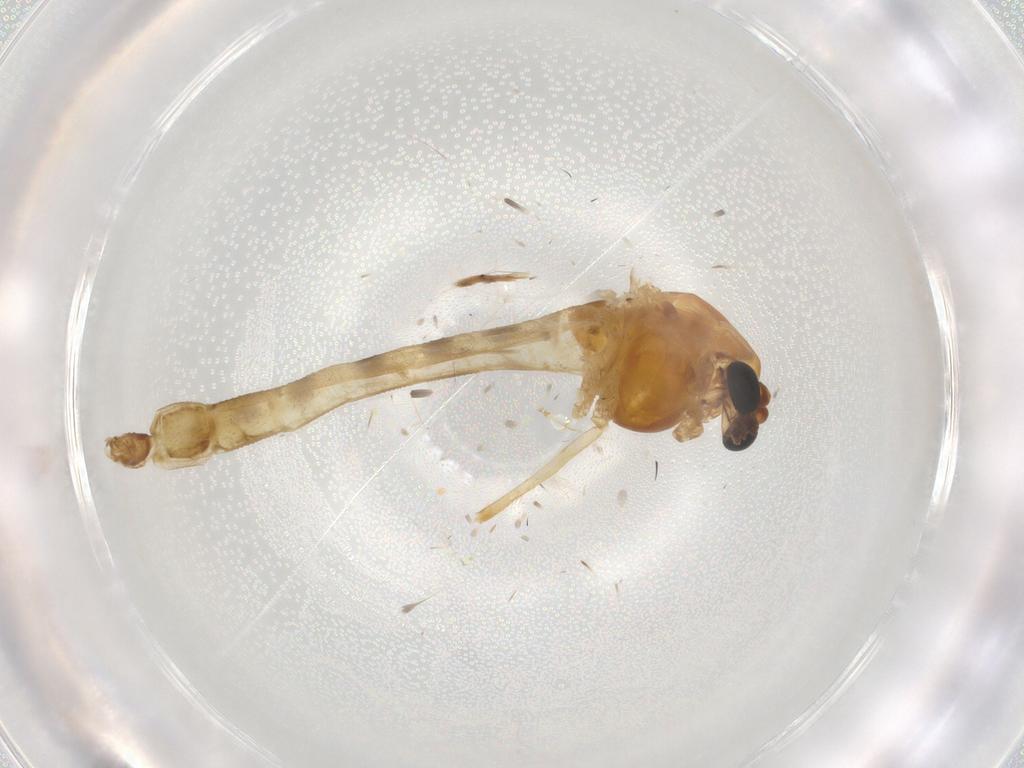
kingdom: Animalia
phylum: Arthropoda
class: Insecta
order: Diptera
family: Chironomidae
